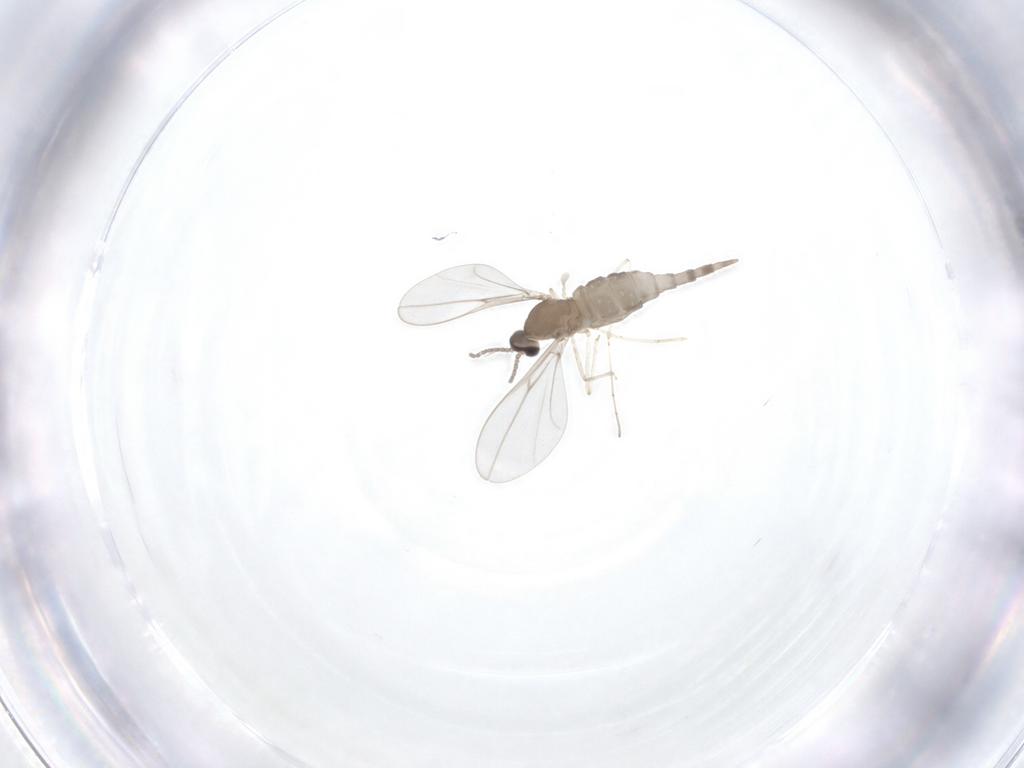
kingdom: Animalia
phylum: Arthropoda
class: Insecta
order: Diptera
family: Cecidomyiidae
